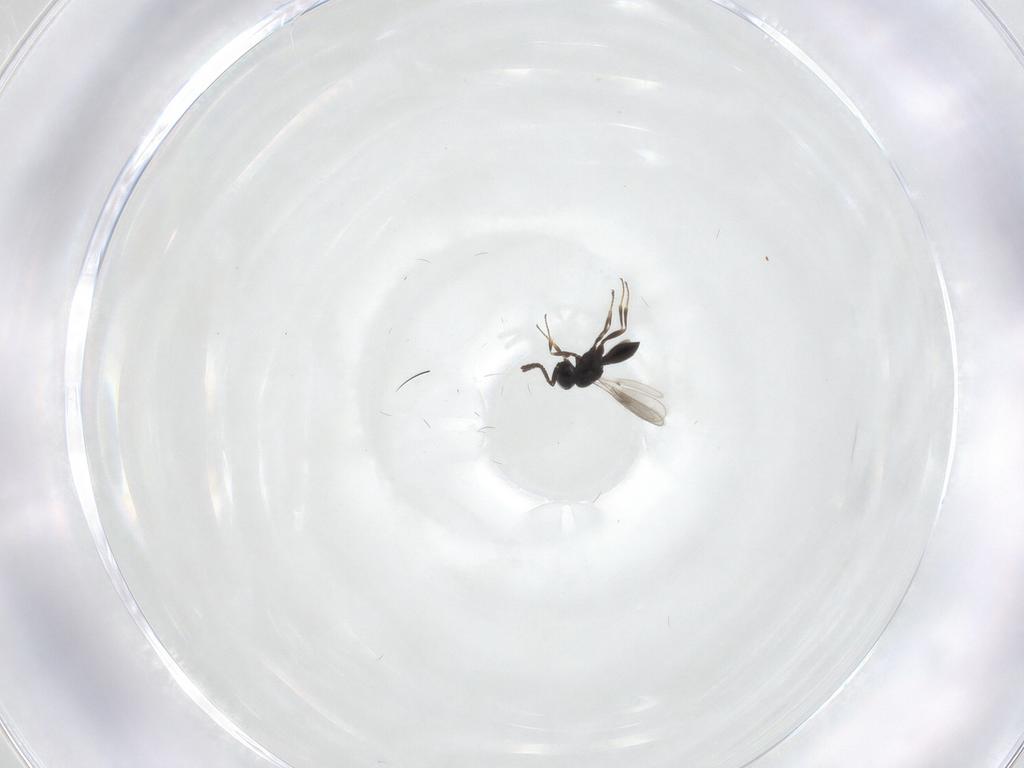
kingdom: Animalia
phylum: Arthropoda
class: Insecta
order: Hymenoptera
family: Scelionidae
